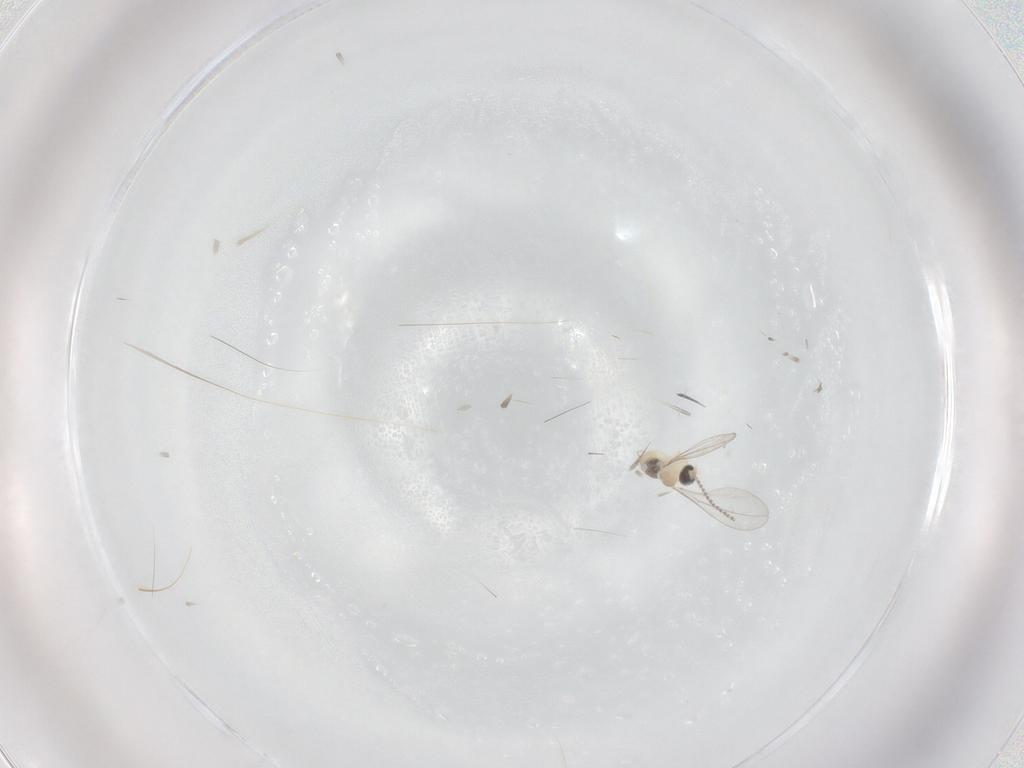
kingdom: Animalia
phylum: Arthropoda
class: Insecta
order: Diptera
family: Cecidomyiidae
